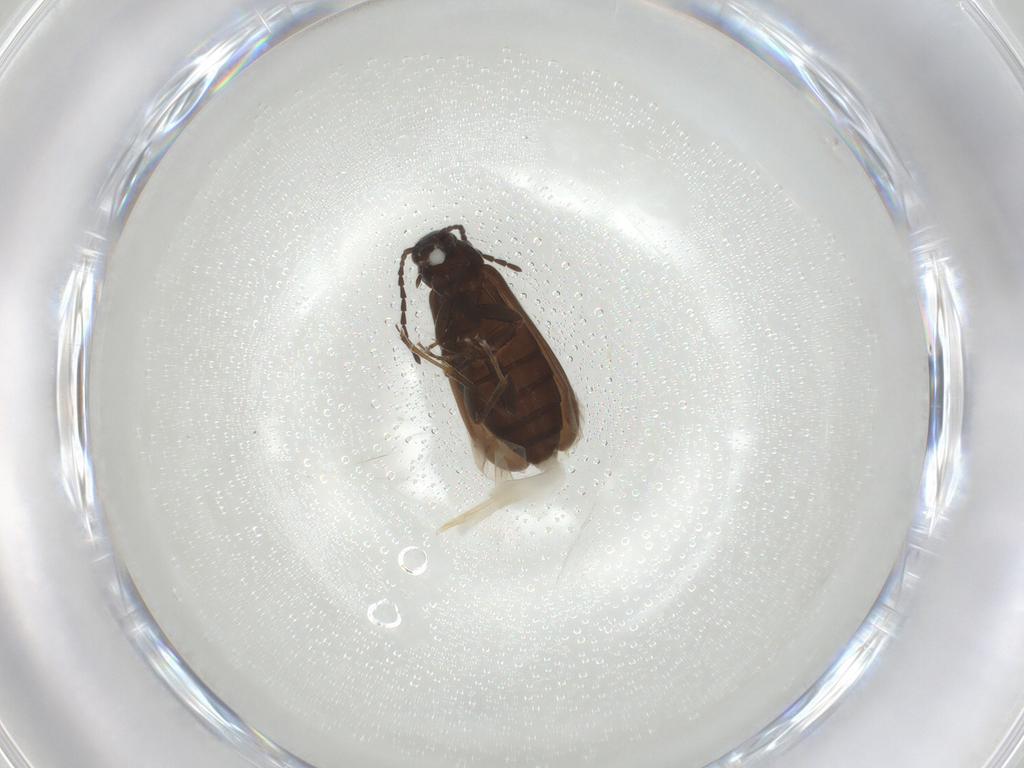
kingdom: Animalia
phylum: Arthropoda
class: Insecta
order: Coleoptera
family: Scraptiidae
